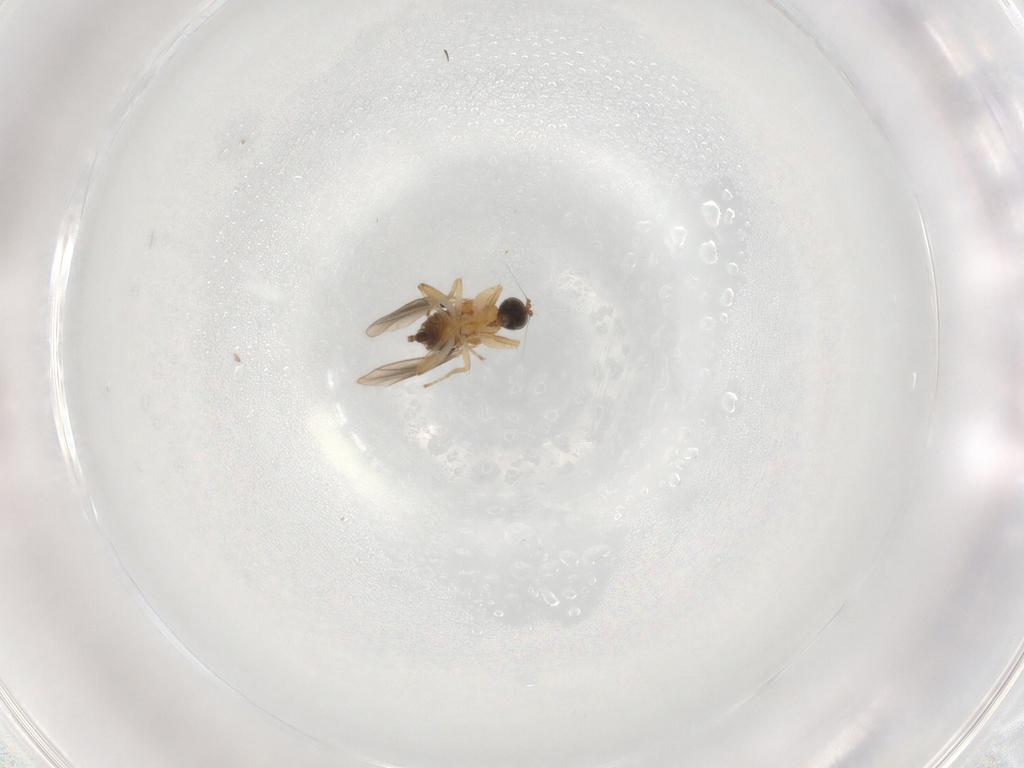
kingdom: Animalia
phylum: Arthropoda
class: Insecta
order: Diptera
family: Hybotidae
